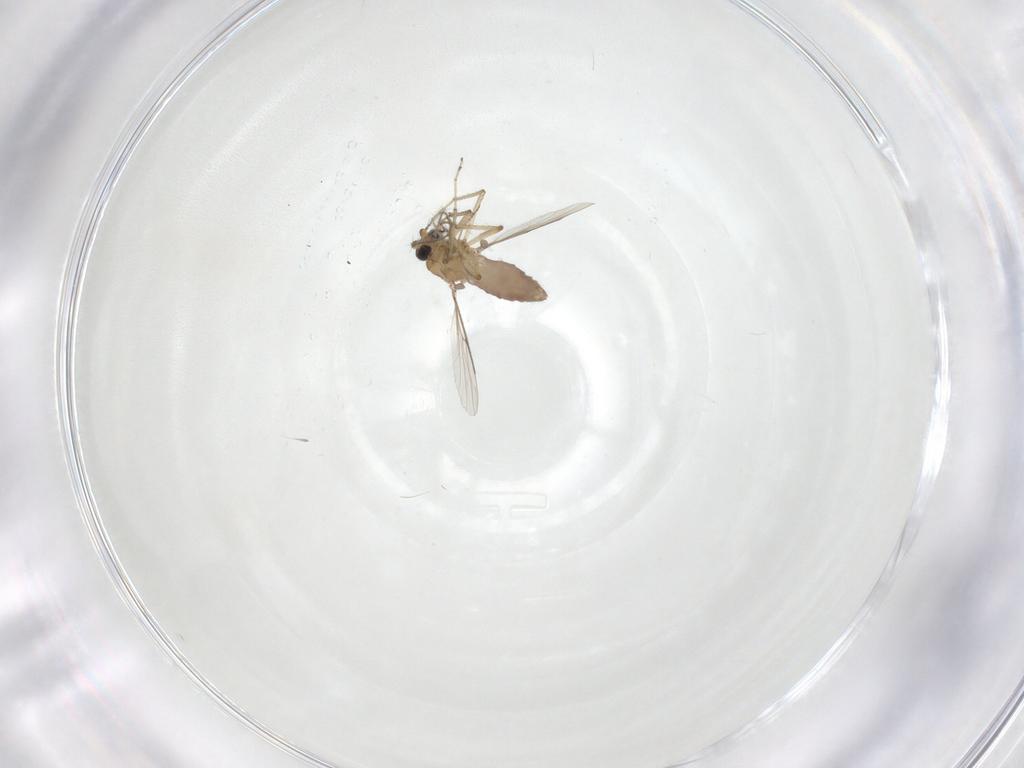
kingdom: Animalia
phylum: Arthropoda
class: Insecta
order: Diptera
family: Ceratopogonidae
